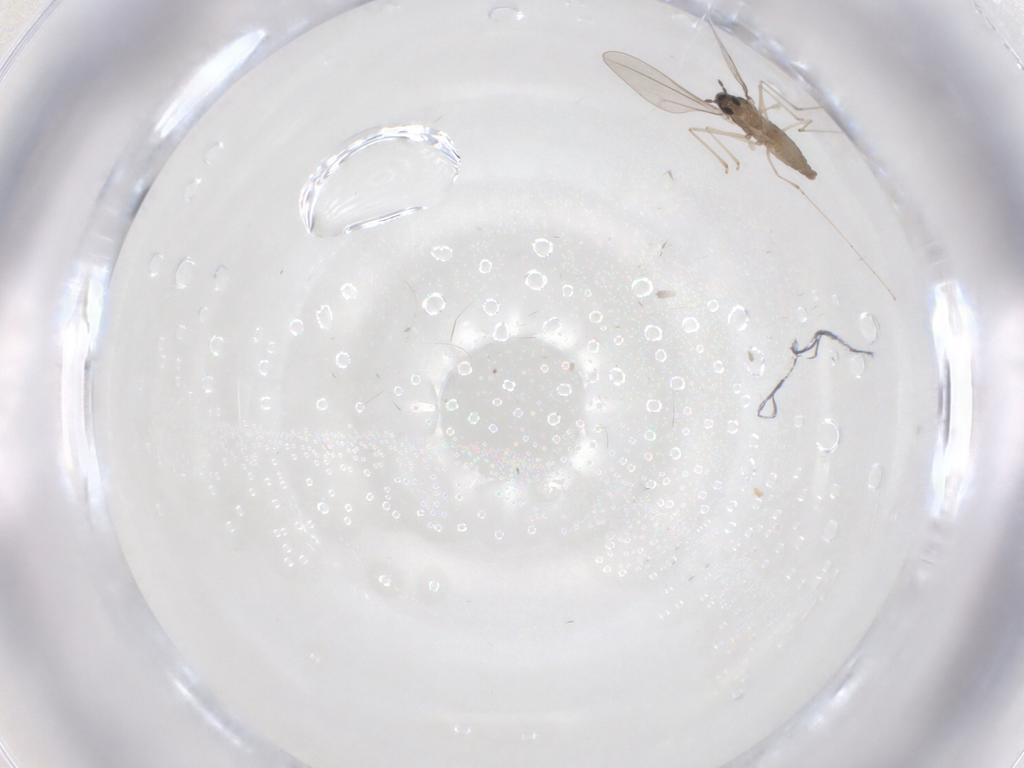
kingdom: Animalia
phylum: Arthropoda
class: Insecta
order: Diptera
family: Cecidomyiidae
